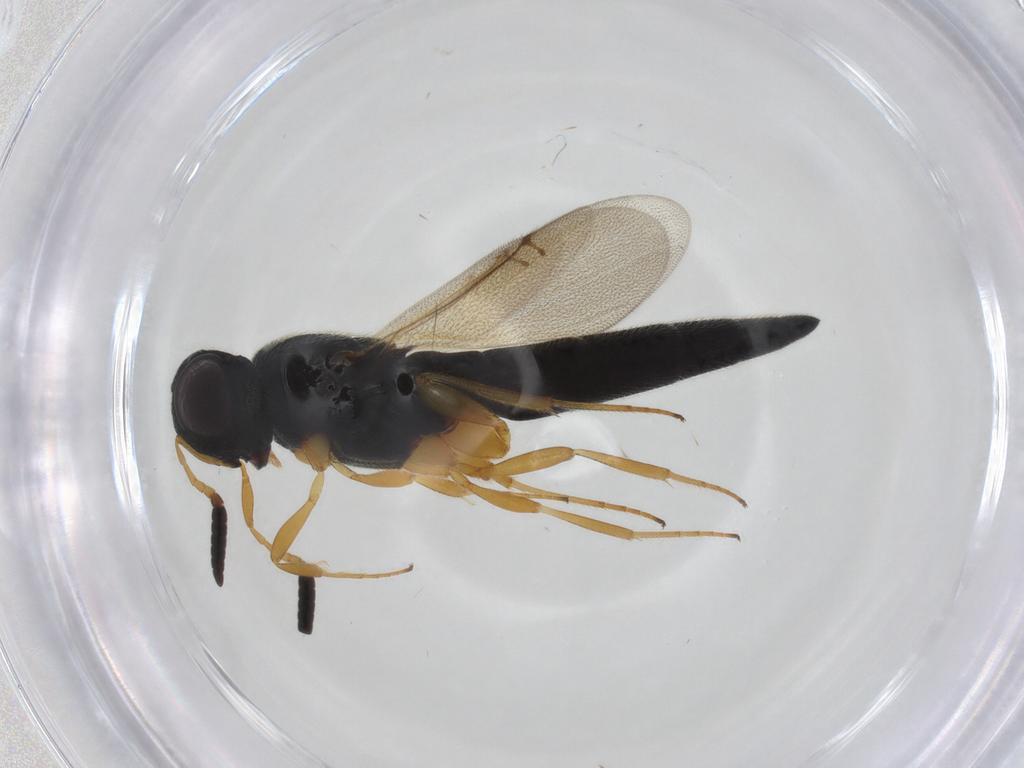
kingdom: Animalia
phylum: Arthropoda
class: Insecta
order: Hymenoptera
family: Scelionidae
